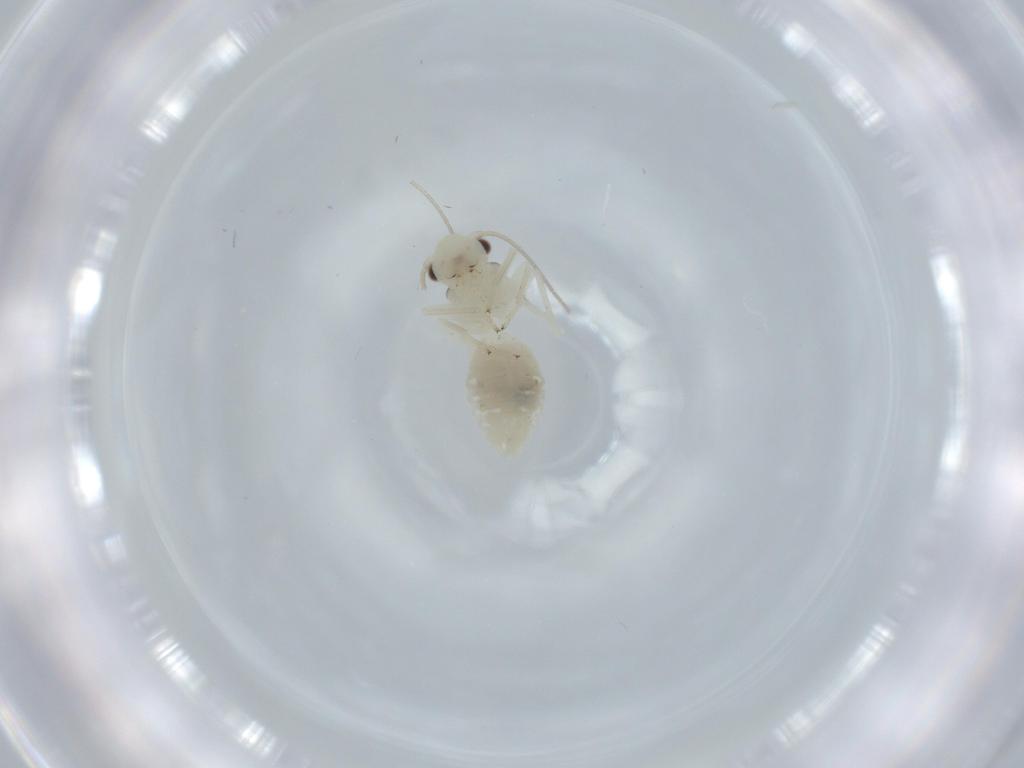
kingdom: Animalia
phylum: Arthropoda
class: Insecta
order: Psocodea
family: Caeciliusidae
